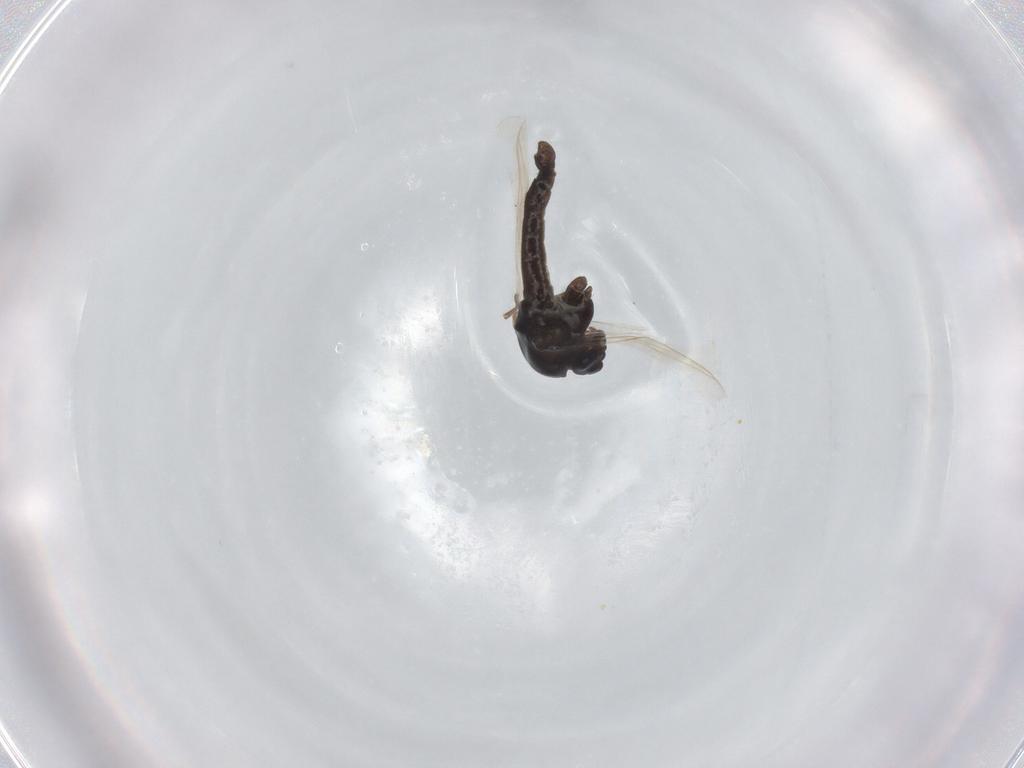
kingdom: Animalia
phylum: Arthropoda
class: Insecta
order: Diptera
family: Chironomidae
